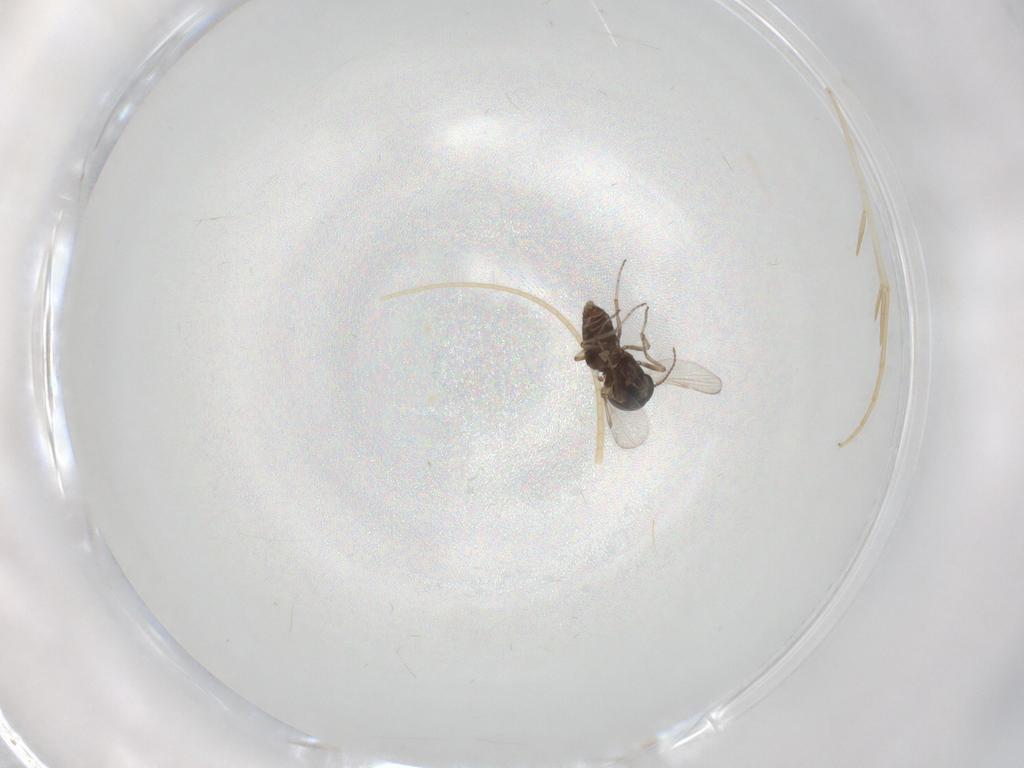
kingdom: Animalia
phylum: Arthropoda
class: Insecta
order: Diptera
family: Ceratopogonidae
